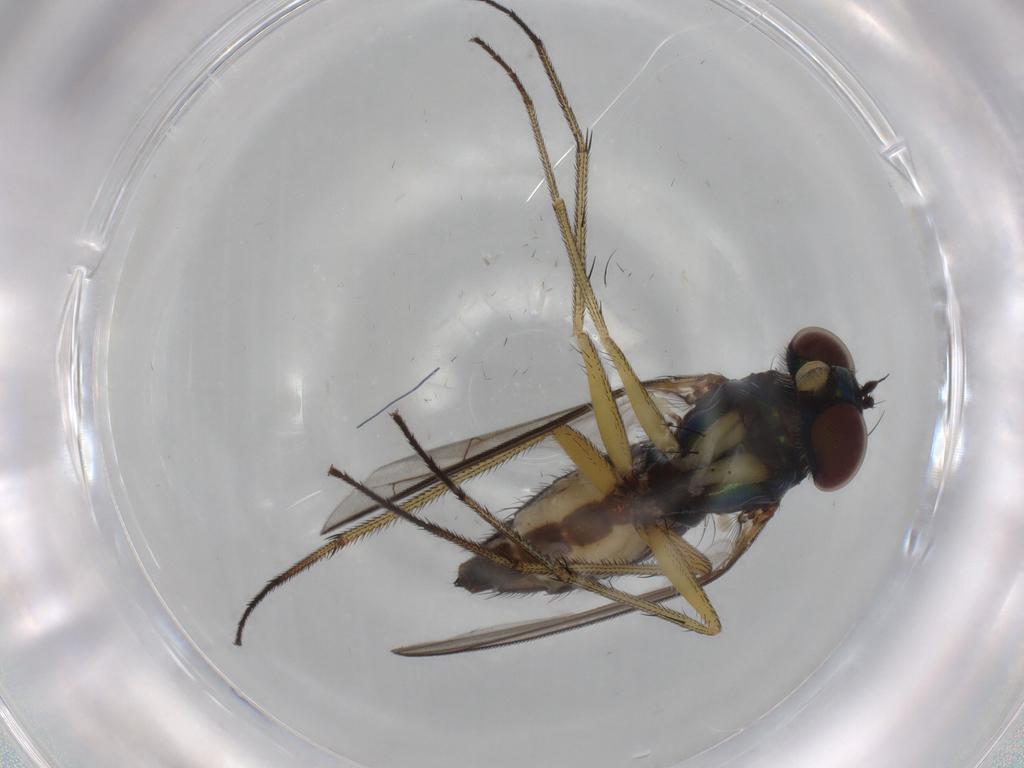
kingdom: Animalia
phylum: Arthropoda
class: Insecta
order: Diptera
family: Dolichopodidae
